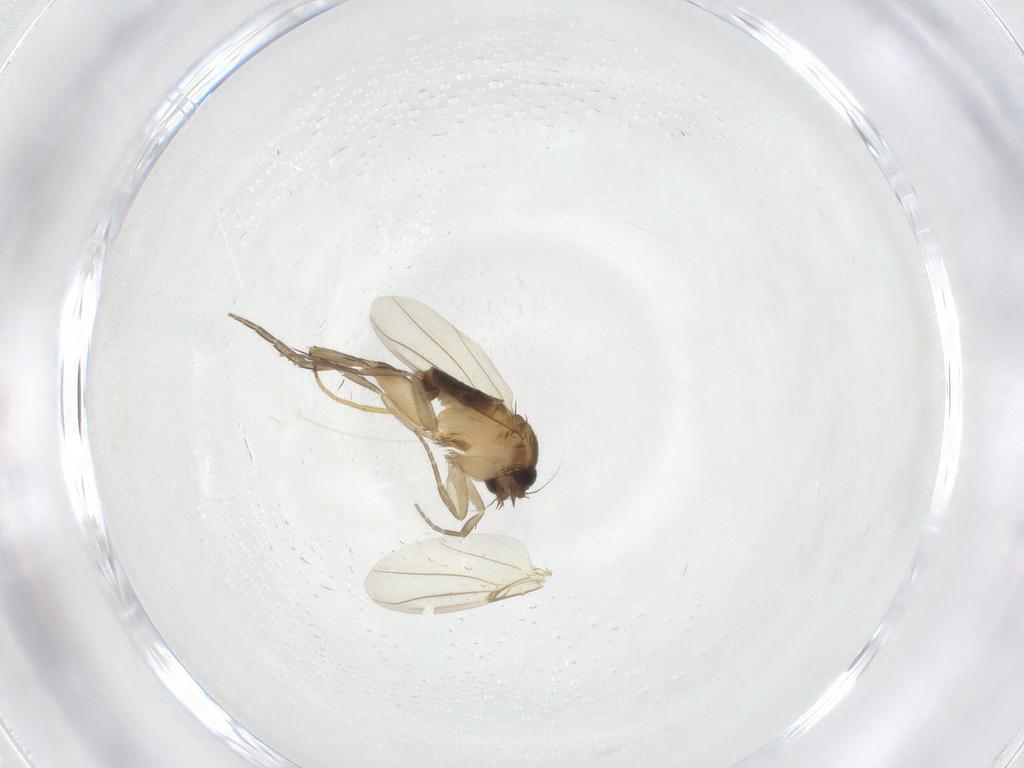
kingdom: Animalia
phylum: Arthropoda
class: Insecta
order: Diptera
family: Phoridae
